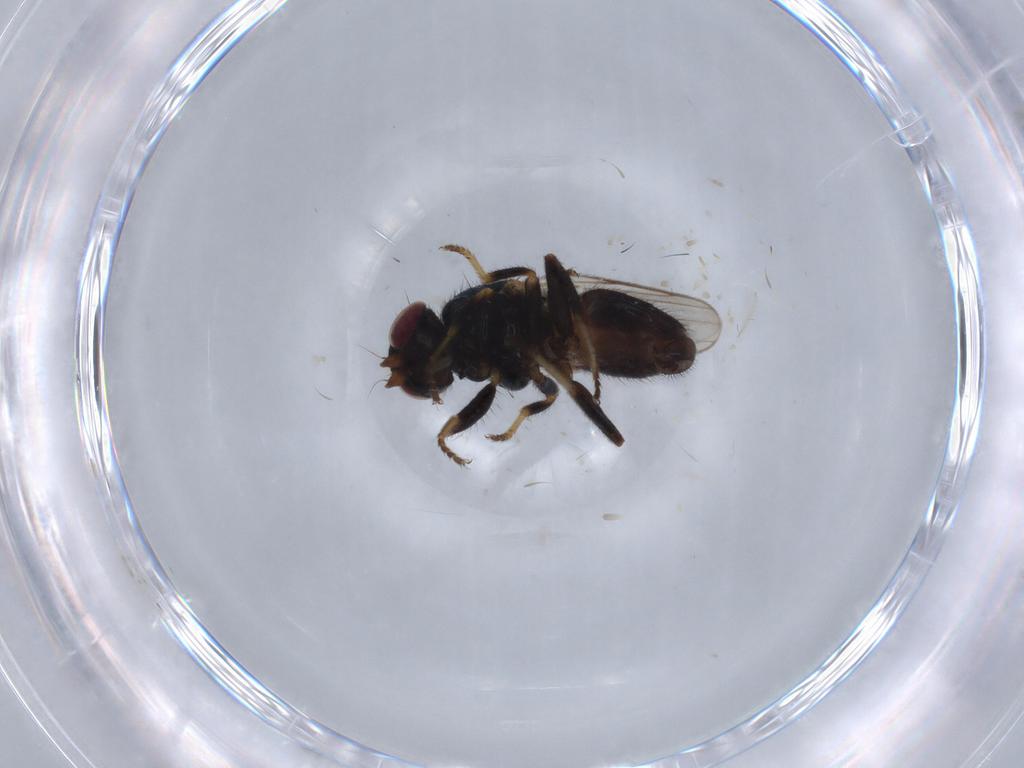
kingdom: Animalia
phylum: Arthropoda
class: Insecta
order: Diptera
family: Chloropidae
